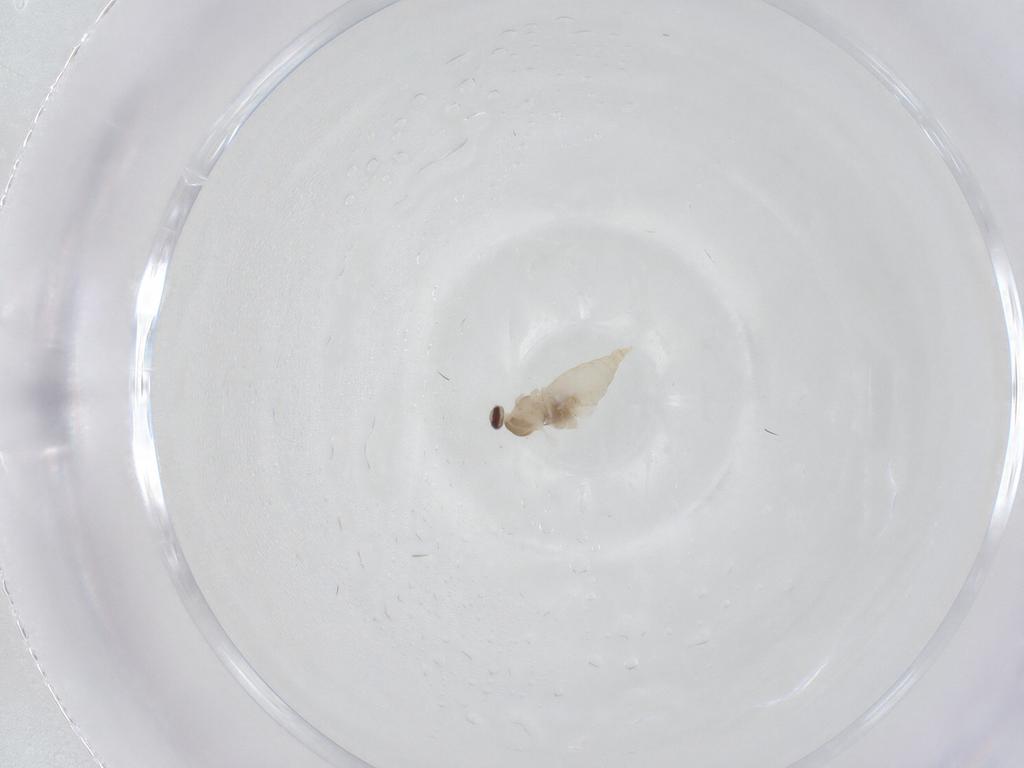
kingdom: Animalia
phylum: Arthropoda
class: Insecta
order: Diptera
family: Cecidomyiidae
